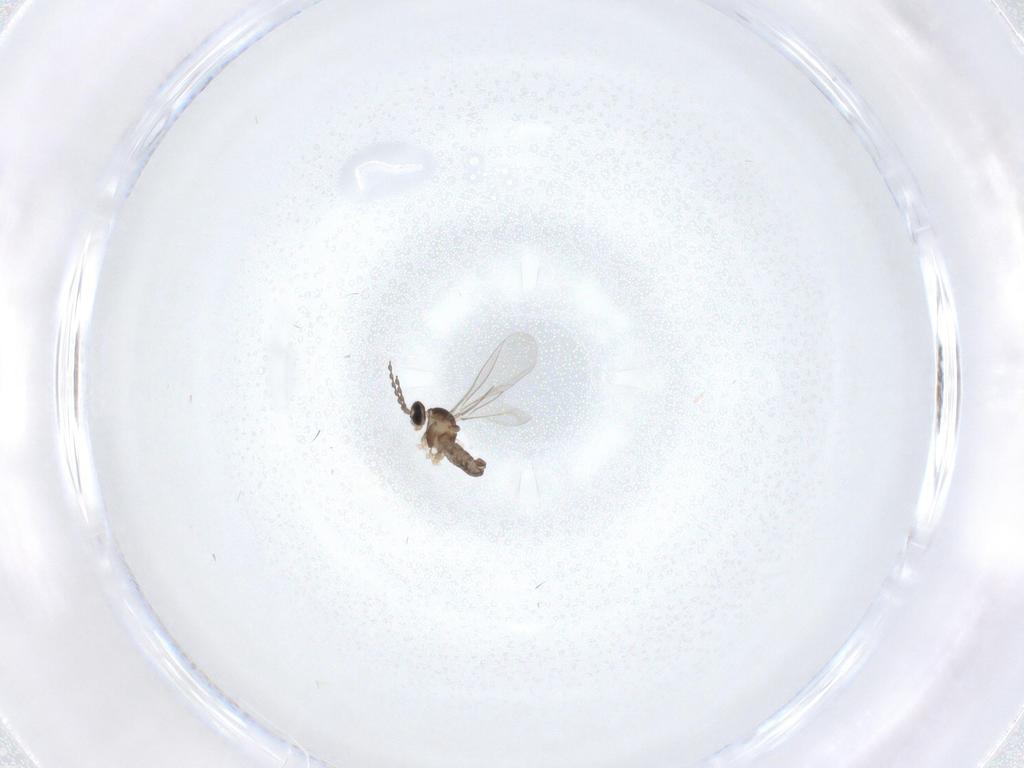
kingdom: Animalia
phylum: Arthropoda
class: Insecta
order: Diptera
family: Cecidomyiidae
